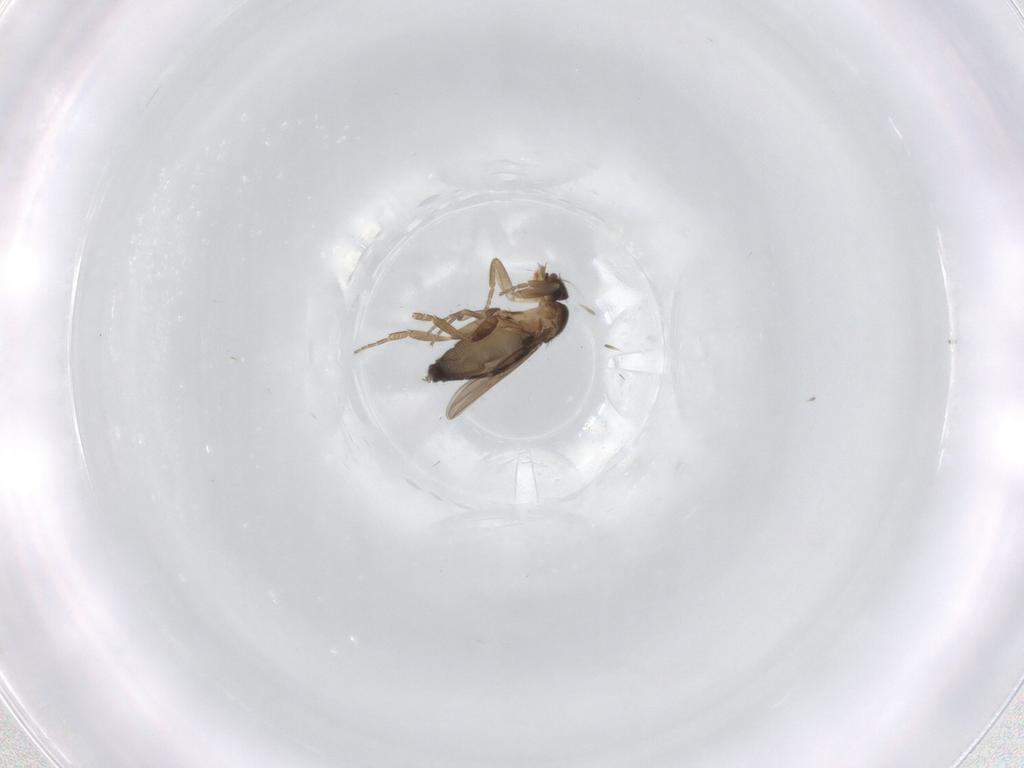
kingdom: Animalia
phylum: Arthropoda
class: Insecta
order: Diptera
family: Phoridae
